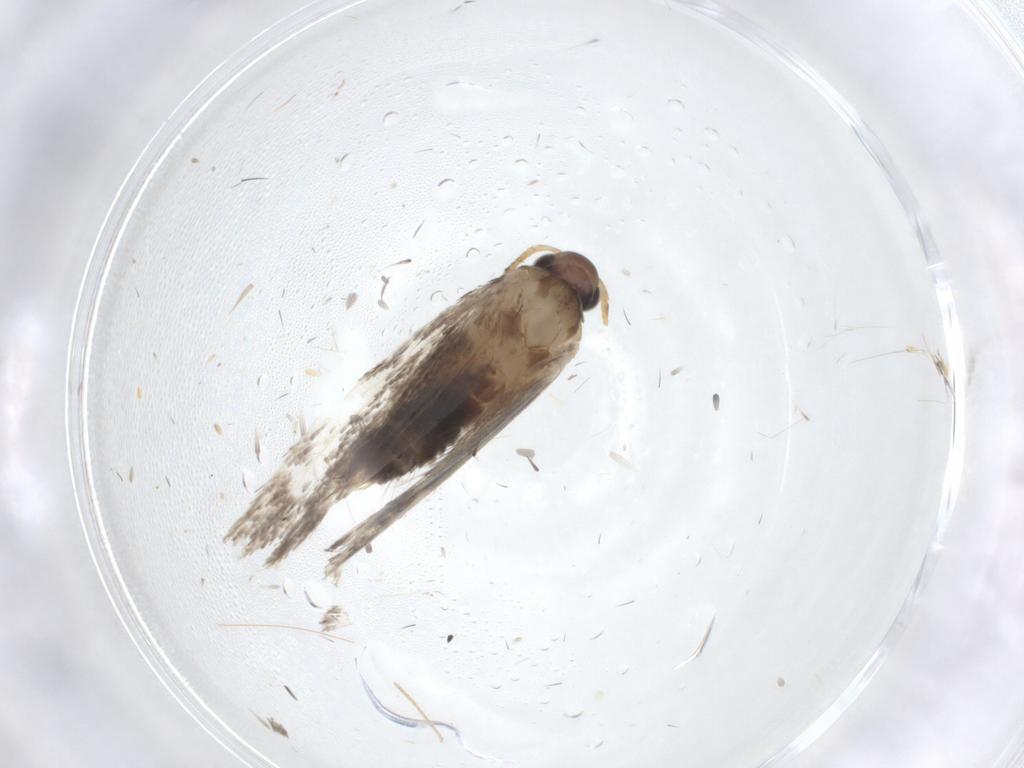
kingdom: Animalia
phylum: Arthropoda
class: Insecta
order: Lepidoptera
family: Elachistidae
